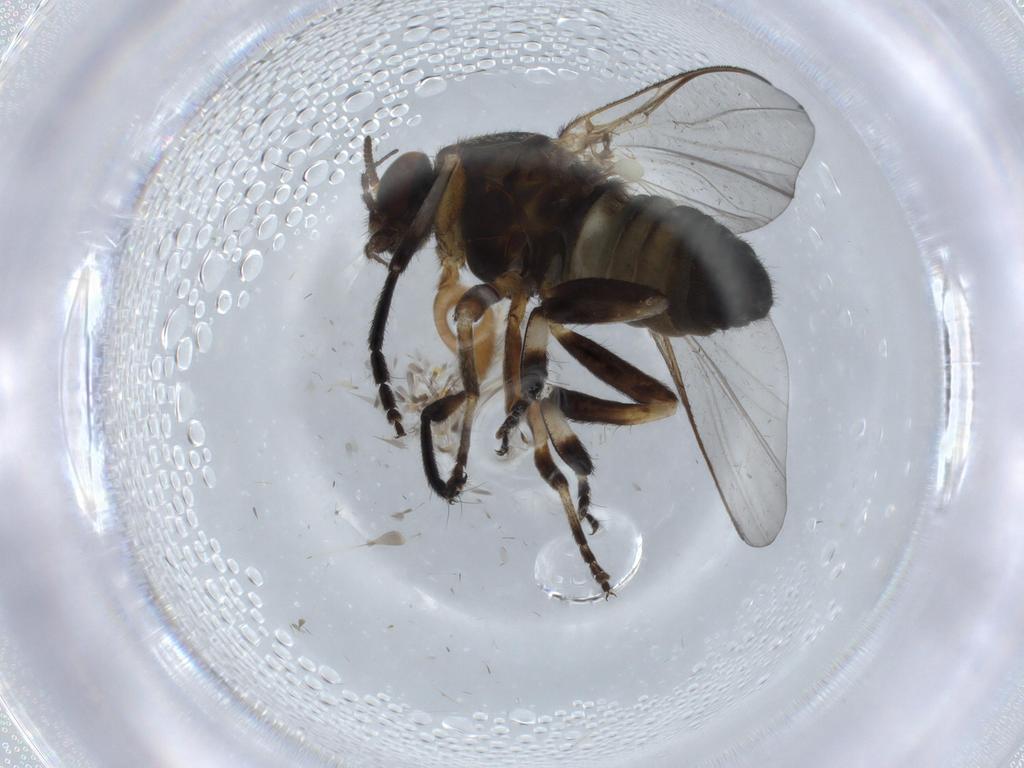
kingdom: Animalia
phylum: Arthropoda
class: Insecta
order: Diptera
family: Sciaridae
